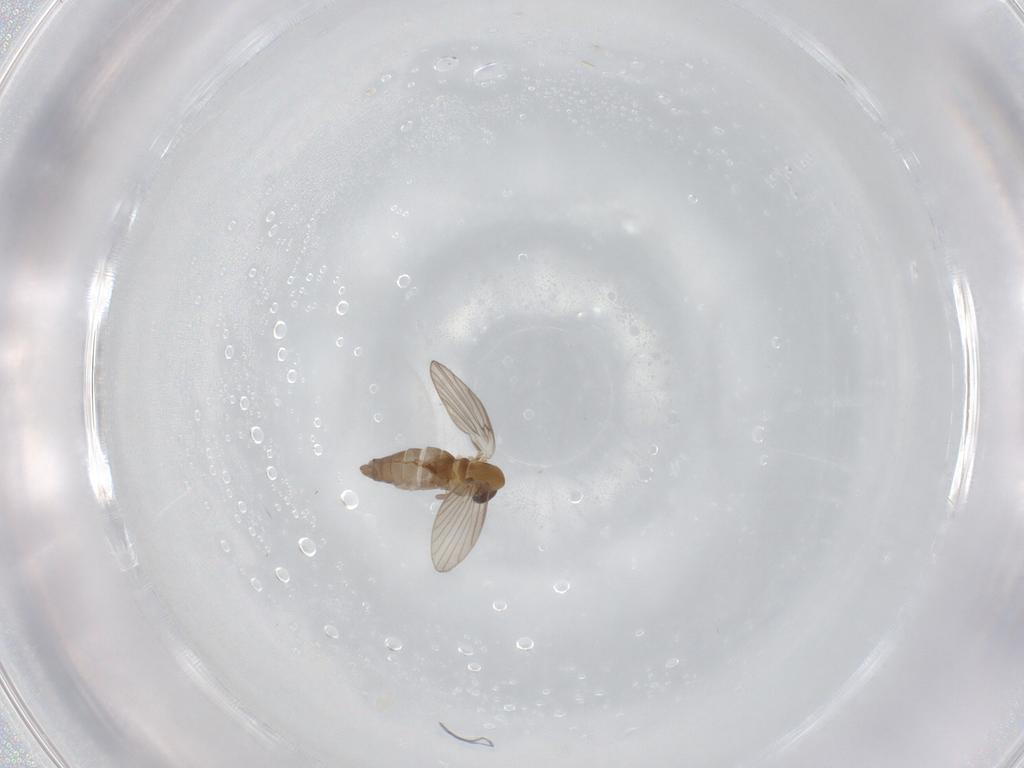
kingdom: Animalia
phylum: Arthropoda
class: Insecta
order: Diptera
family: Psychodidae
